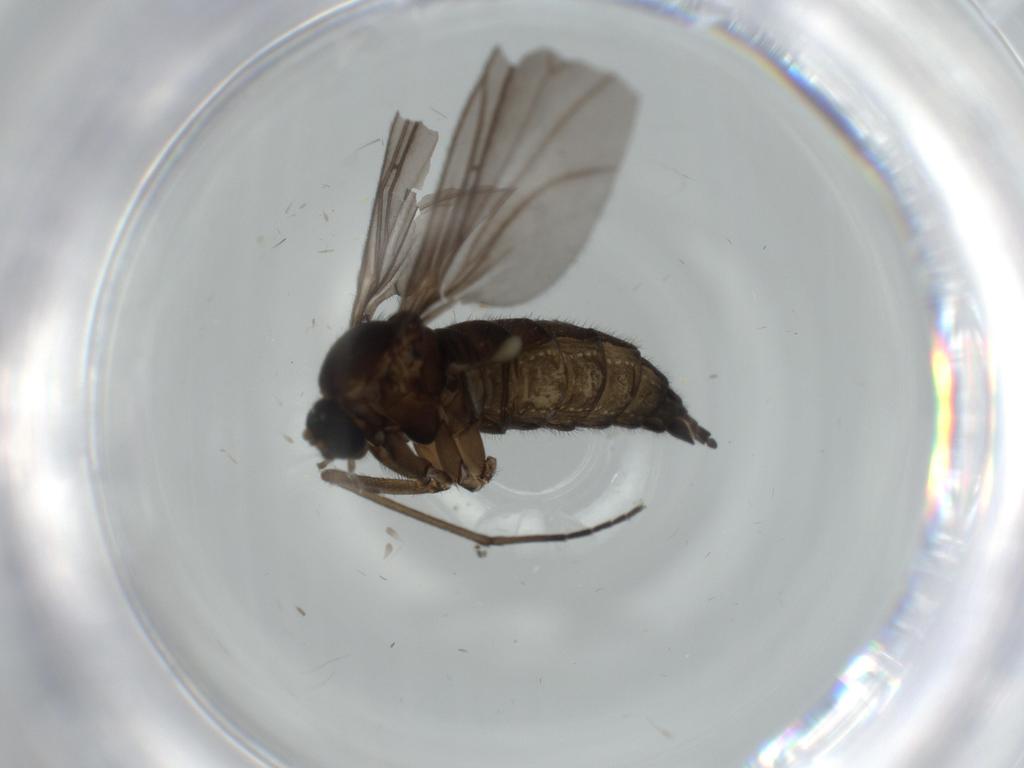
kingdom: Animalia
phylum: Arthropoda
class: Insecta
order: Diptera
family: Sciaridae
